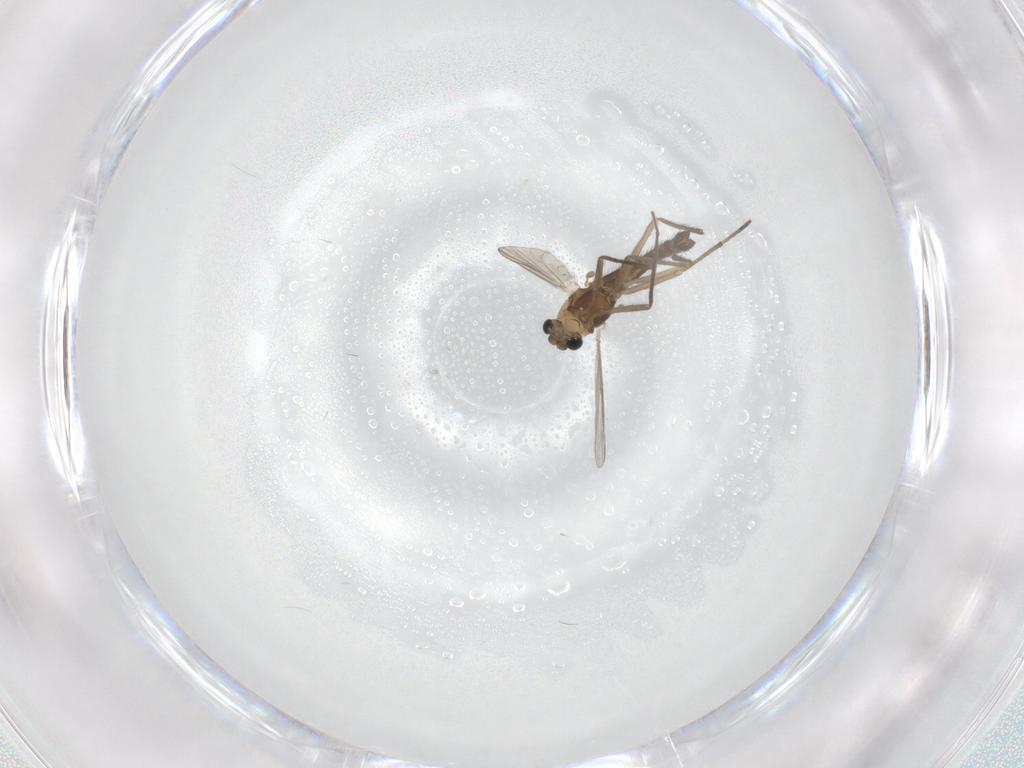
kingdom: Animalia
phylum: Arthropoda
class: Insecta
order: Diptera
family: Chironomidae
